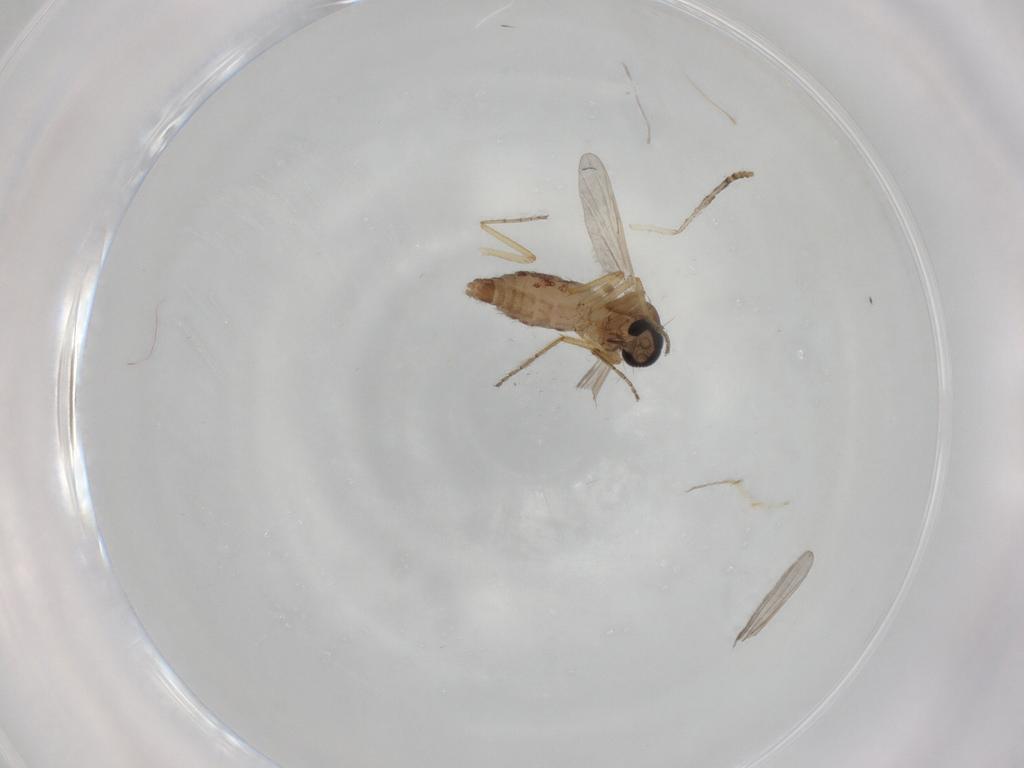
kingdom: Animalia
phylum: Arthropoda
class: Insecta
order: Diptera
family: Ceratopogonidae
